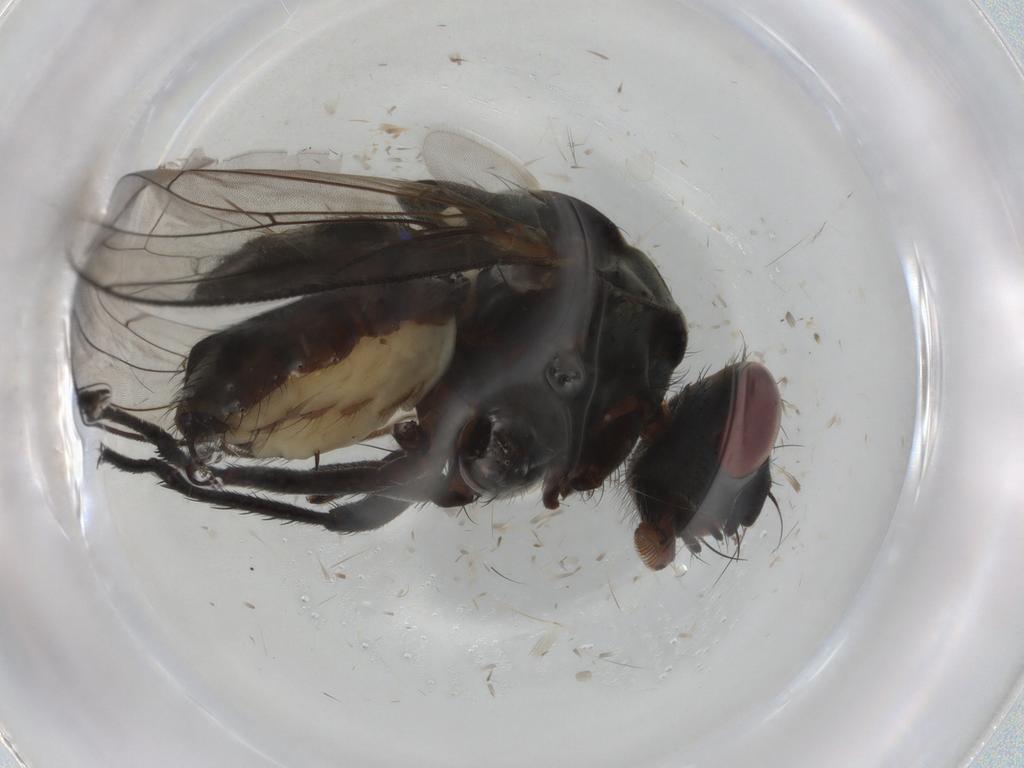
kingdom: Animalia
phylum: Arthropoda
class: Insecta
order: Diptera
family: Anthomyiidae
